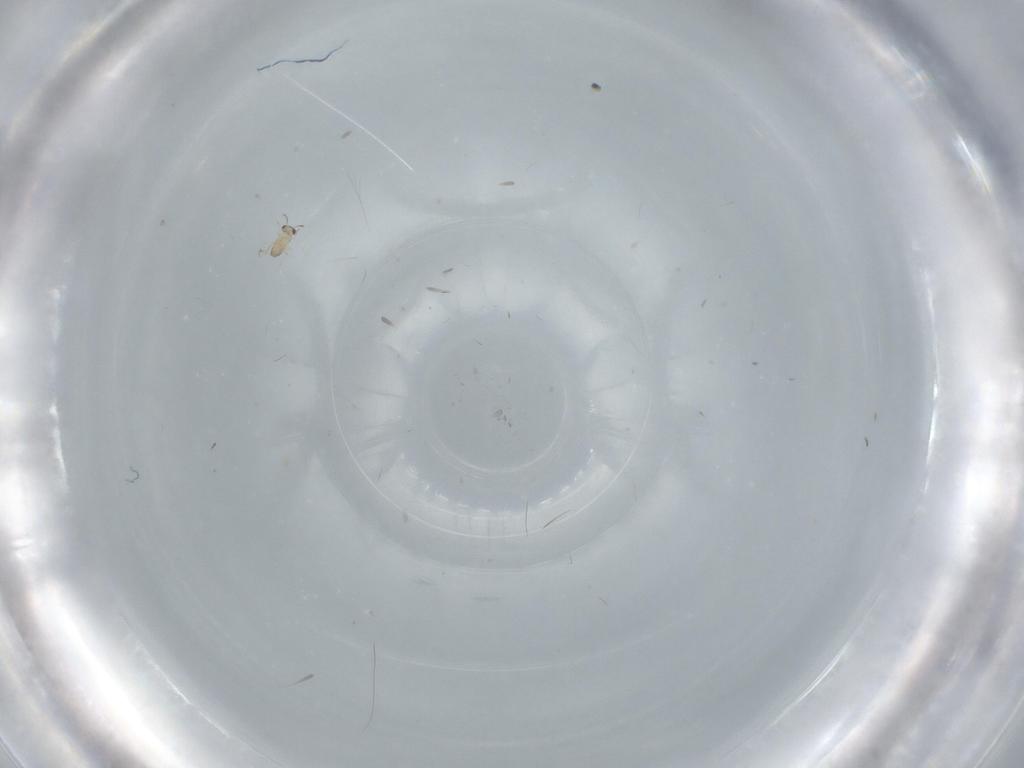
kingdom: Animalia
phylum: Arthropoda
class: Insecta
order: Hymenoptera
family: Mymaridae
